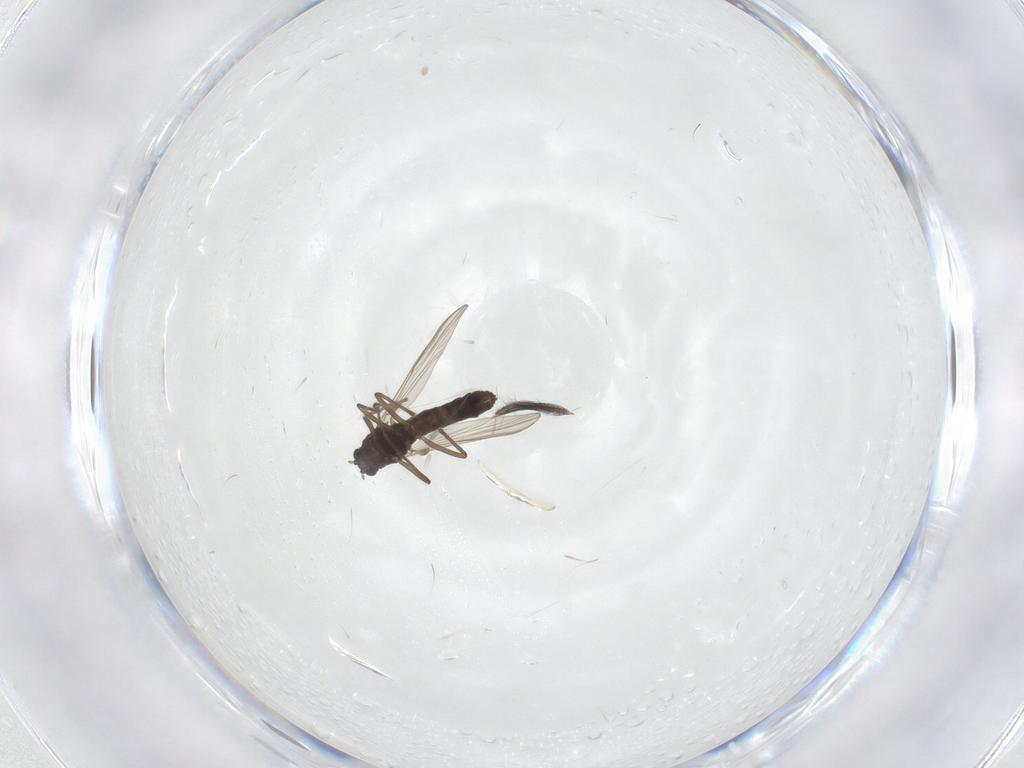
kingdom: Animalia
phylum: Arthropoda
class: Insecta
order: Diptera
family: Chironomidae
